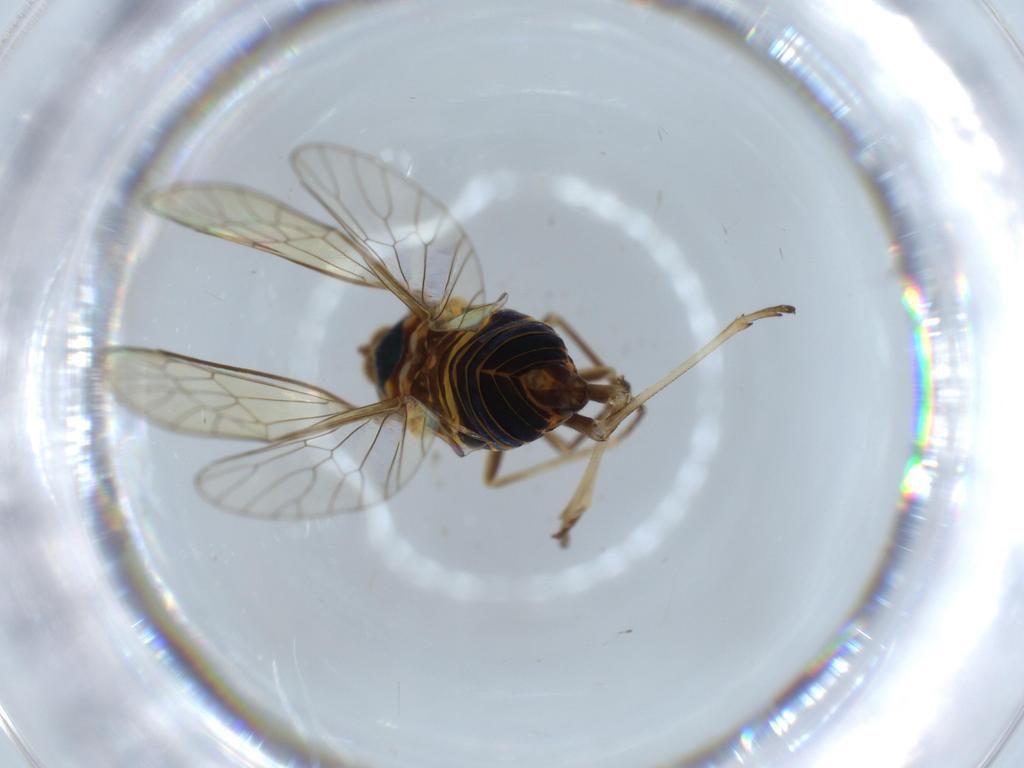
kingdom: Animalia
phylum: Arthropoda
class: Insecta
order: Hemiptera
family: Kinnaridae
